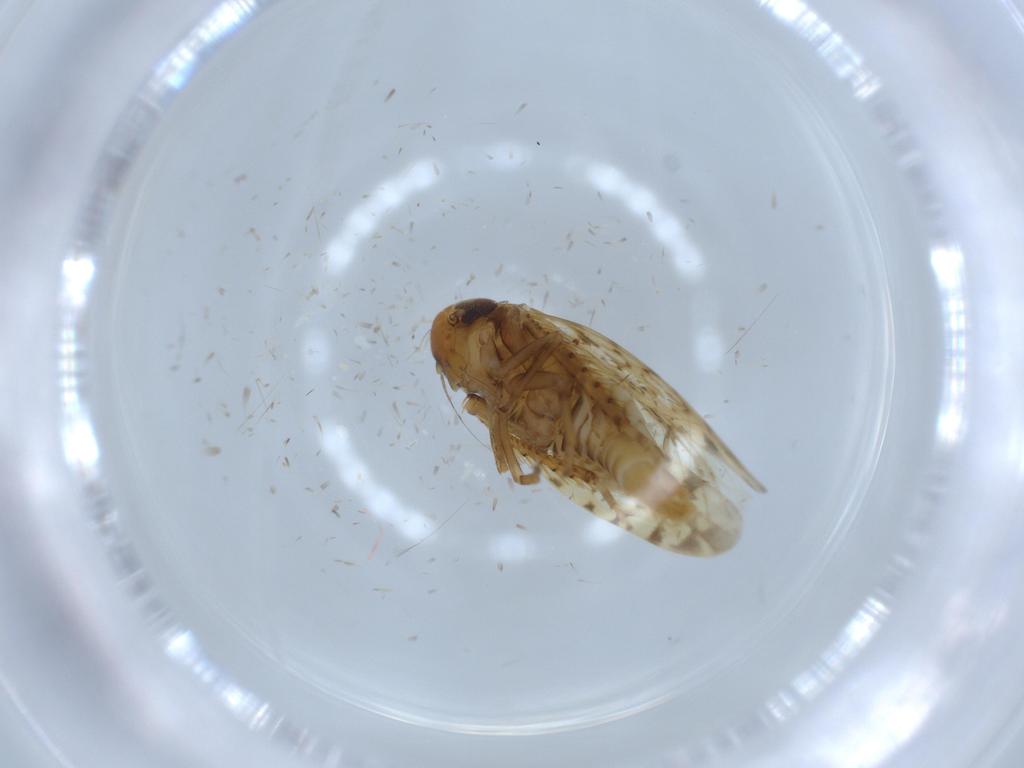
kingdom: Animalia
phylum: Arthropoda
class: Insecta
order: Hemiptera
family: Cicadellidae
